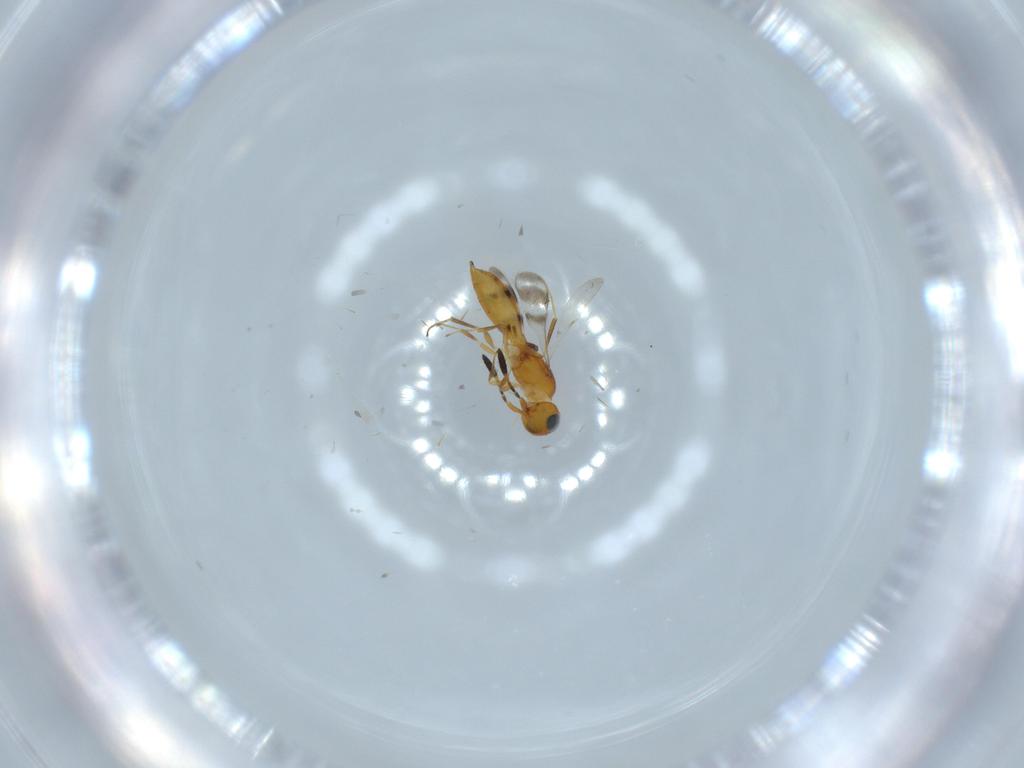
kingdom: Animalia
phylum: Arthropoda
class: Insecta
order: Hymenoptera
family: Scelionidae
